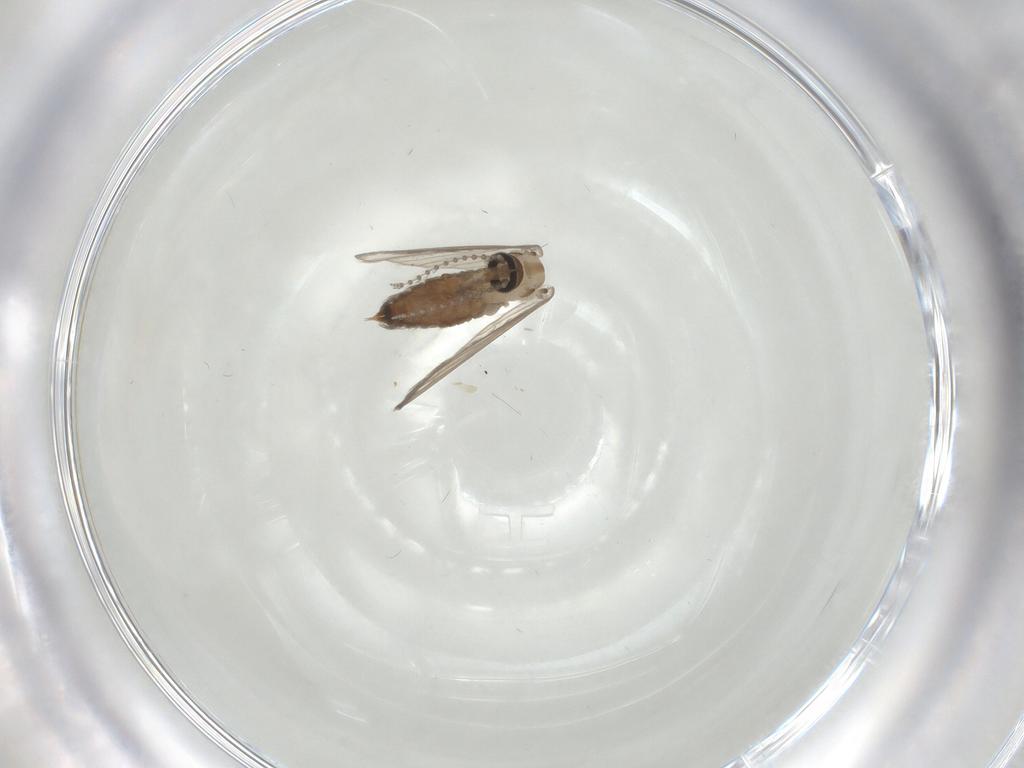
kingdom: Animalia
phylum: Arthropoda
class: Insecta
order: Diptera
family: Psychodidae
